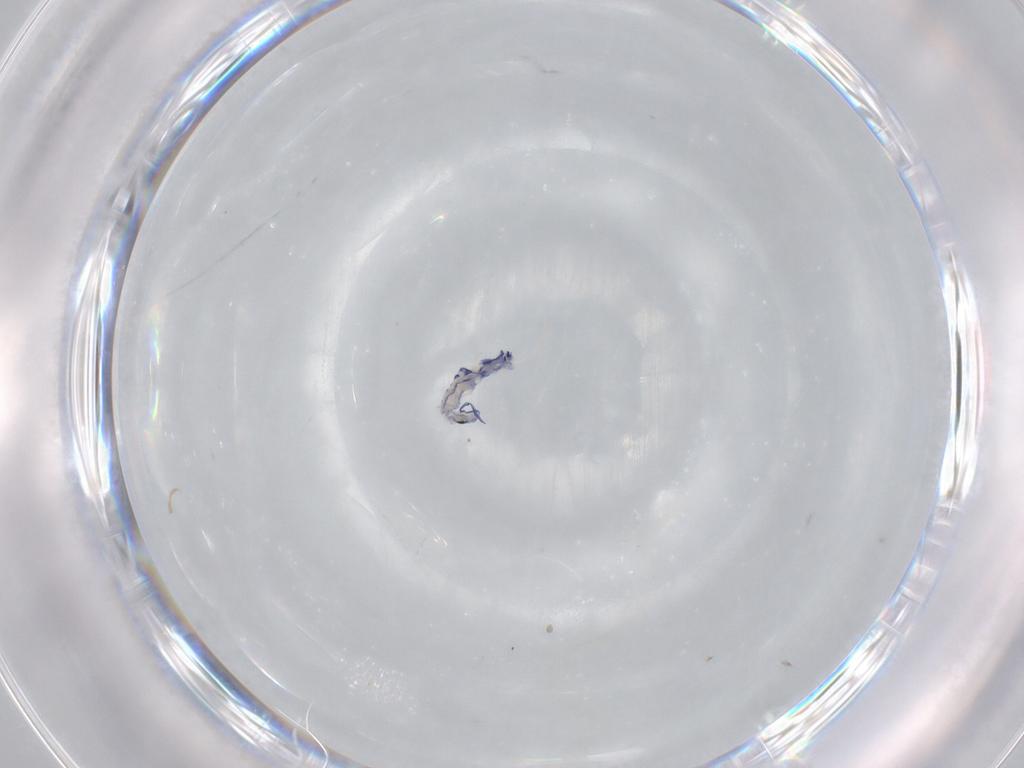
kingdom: Animalia
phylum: Arthropoda
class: Collembola
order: Entomobryomorpha
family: Entomobryidae
